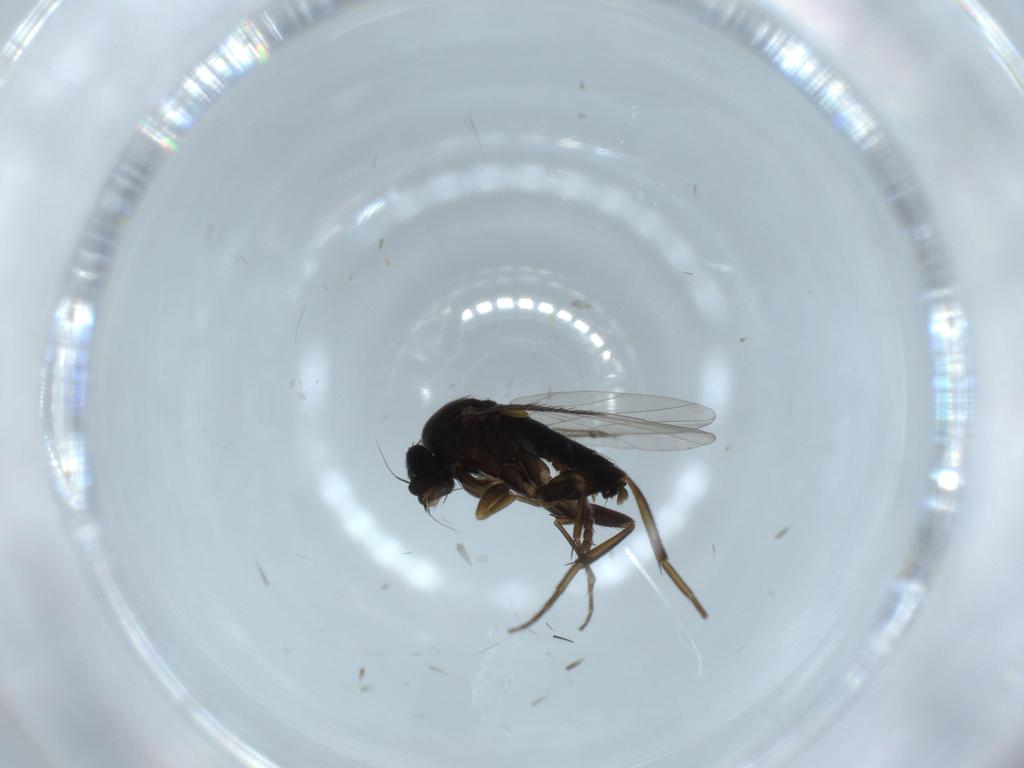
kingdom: Animalia
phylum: Arthropoda
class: Insecta
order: Diptera
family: Phoridae
